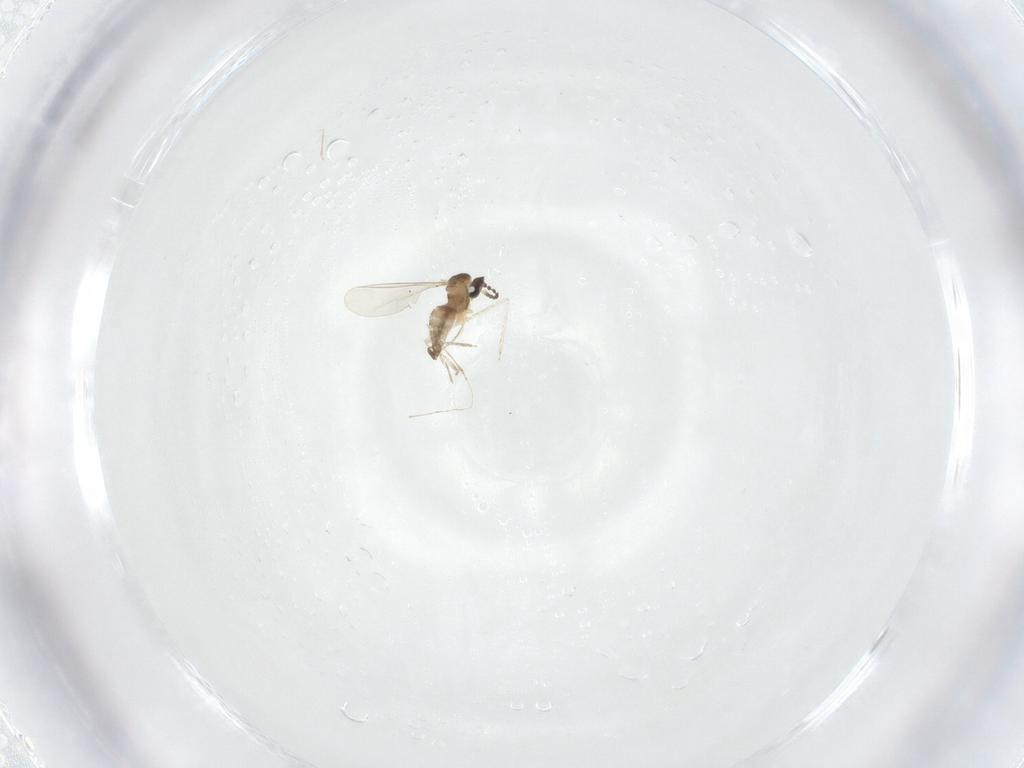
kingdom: Animalia
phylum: Arthropoda
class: Insecta
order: Diptera
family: Cecidomyiidae
